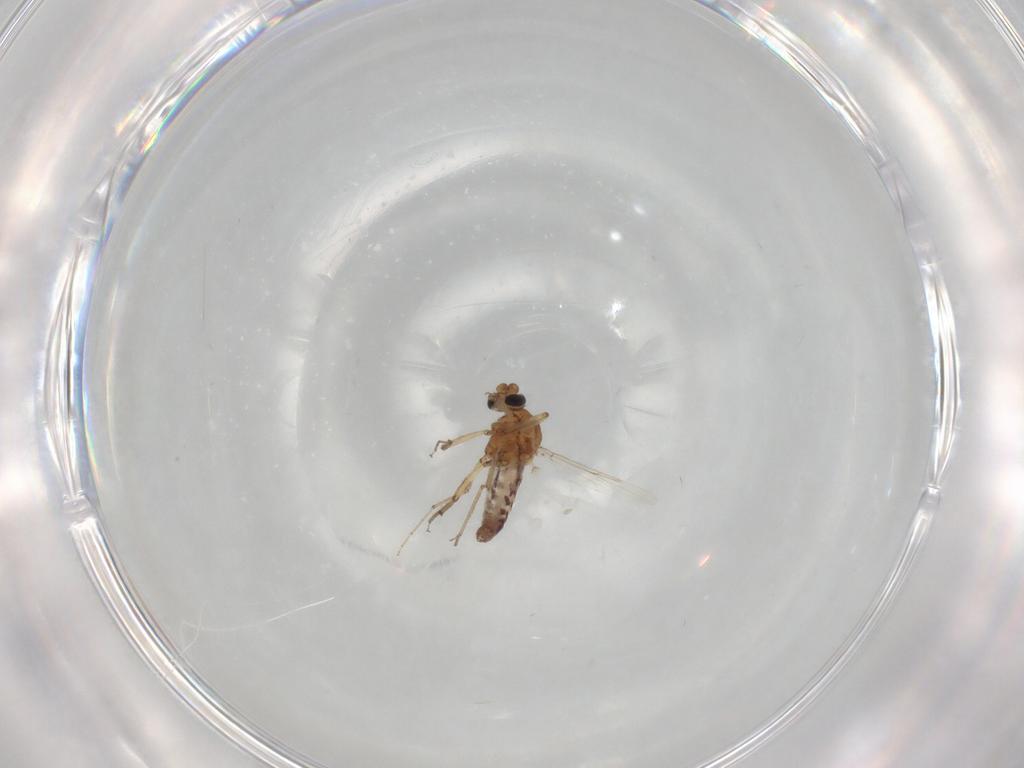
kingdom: Animalia
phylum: Arthropoda
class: Insecta
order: Diptera
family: Ceratopogonidae
